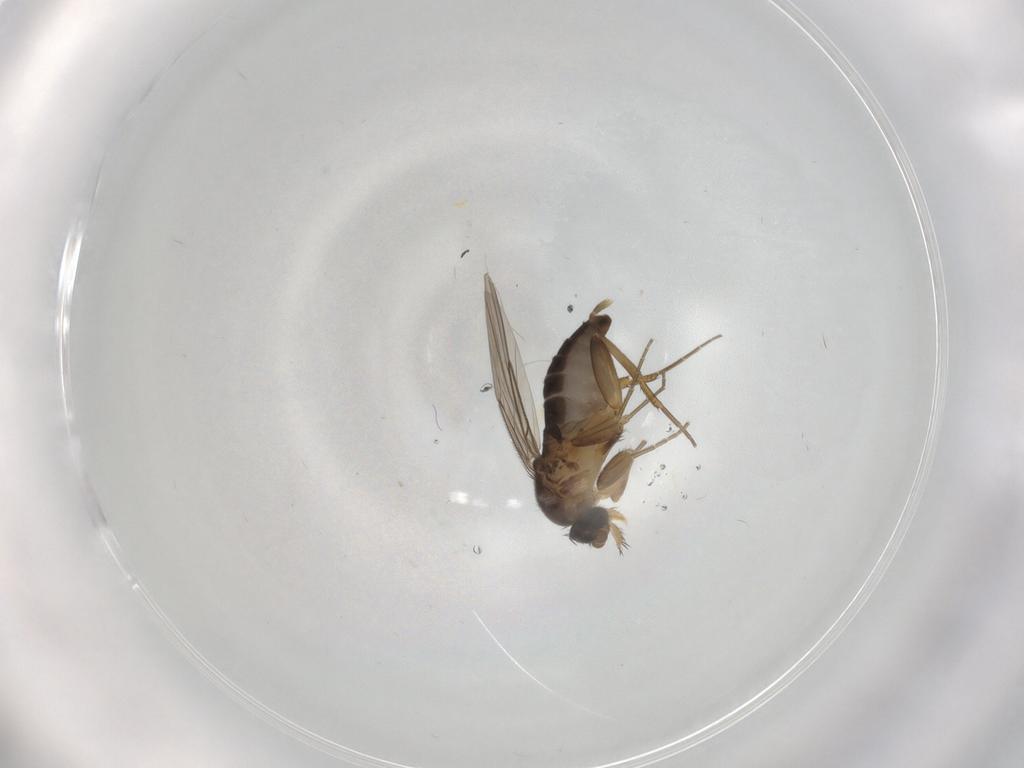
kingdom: Animalia
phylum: Arthropoda
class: Insecta
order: Diptera
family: Phoridae
